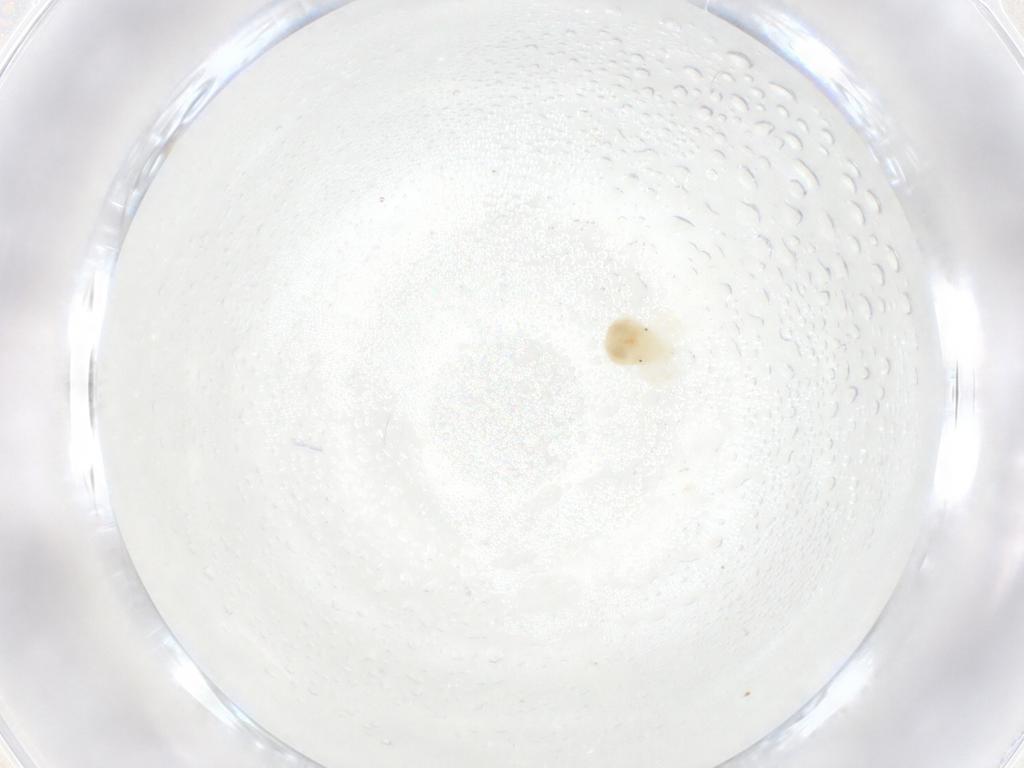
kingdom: Animalia
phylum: Arthropoda
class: Arachnida
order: Trombidiformes
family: Anystidae
